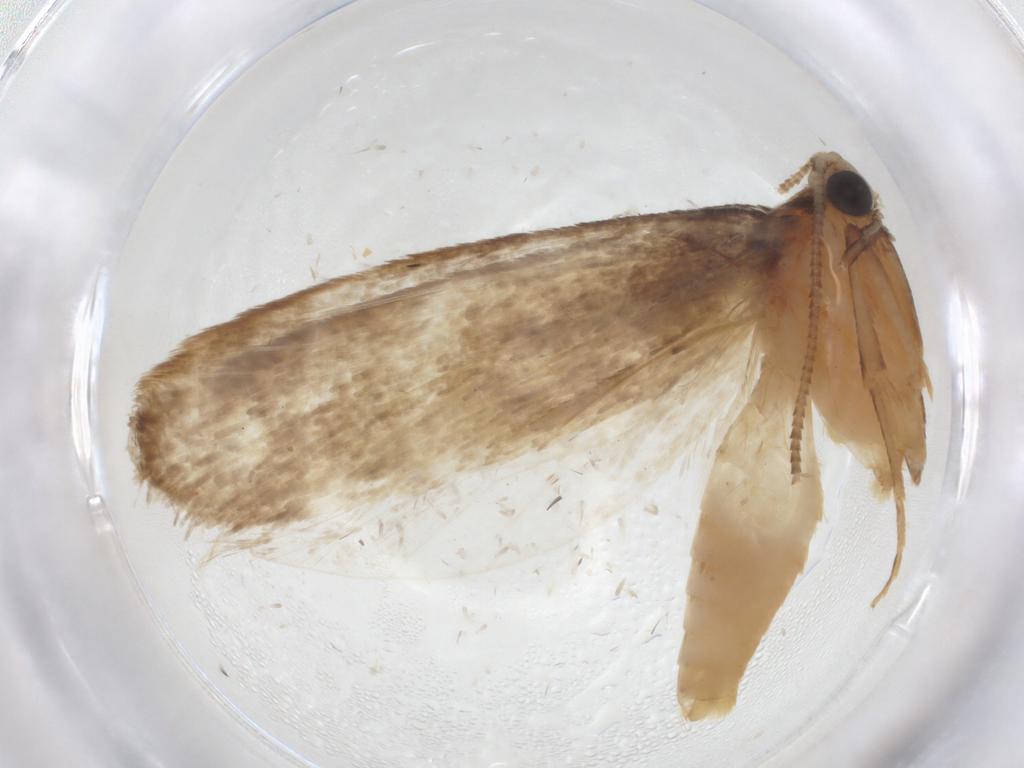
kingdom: Animalia
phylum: Arthropoda
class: Insecta
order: Lepidoptera
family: Tineidae
